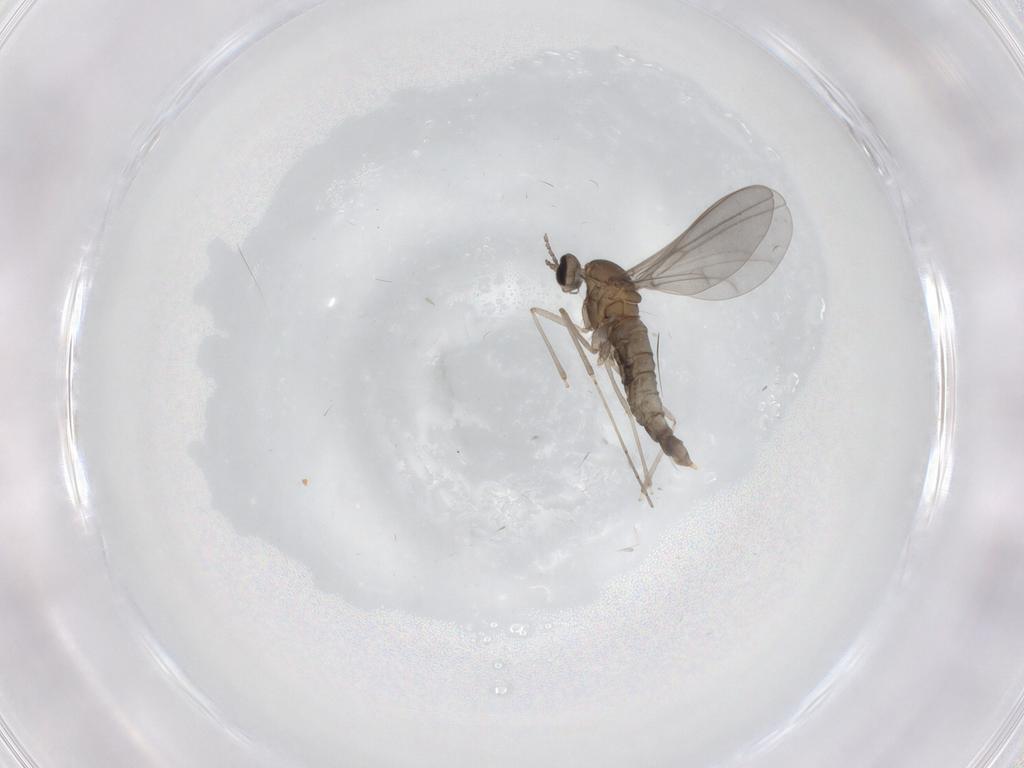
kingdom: Animalia
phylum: Arthropoda
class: Insecta
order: Diptera
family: Cecidomyiidae
